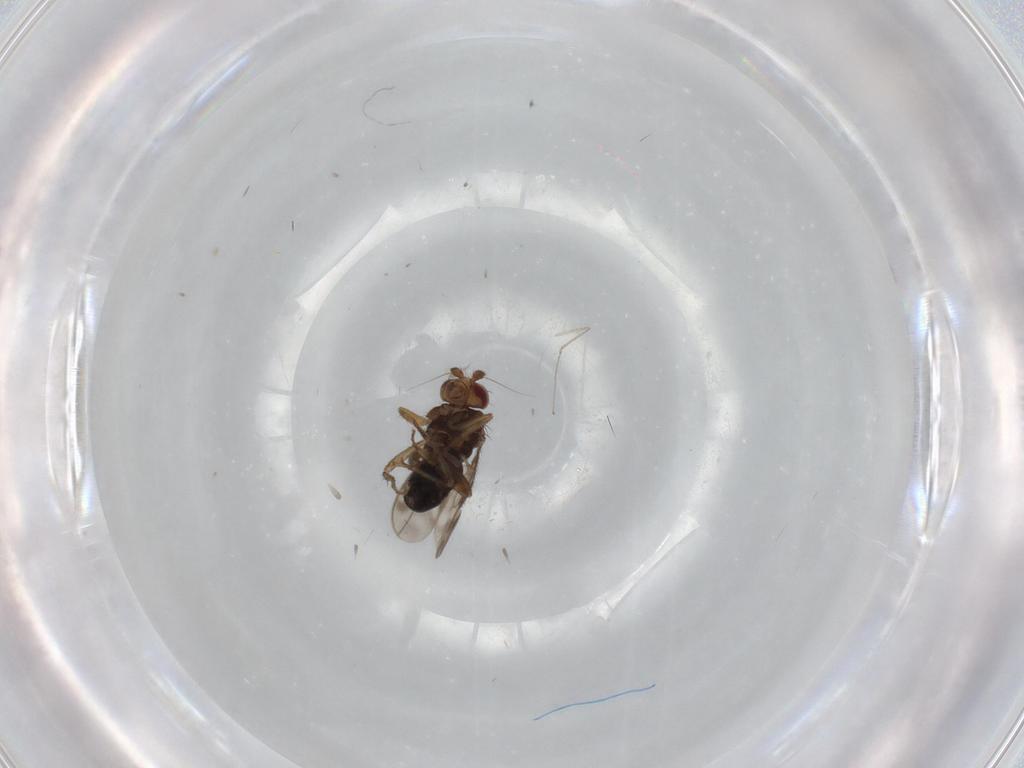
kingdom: Animalia
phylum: Arthropoda
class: Insecta
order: Diptera
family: Sphaeroceridae
